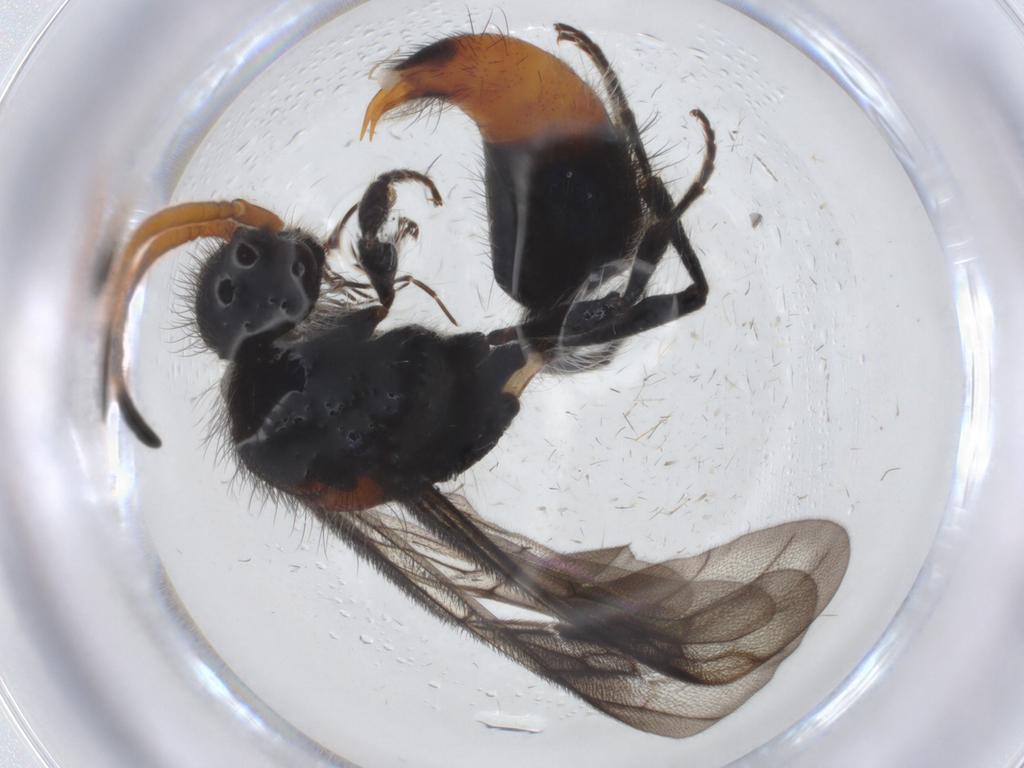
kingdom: Animalia
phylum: Arthropoda
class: Insecta
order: Hymenoptera
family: Mutillidae
